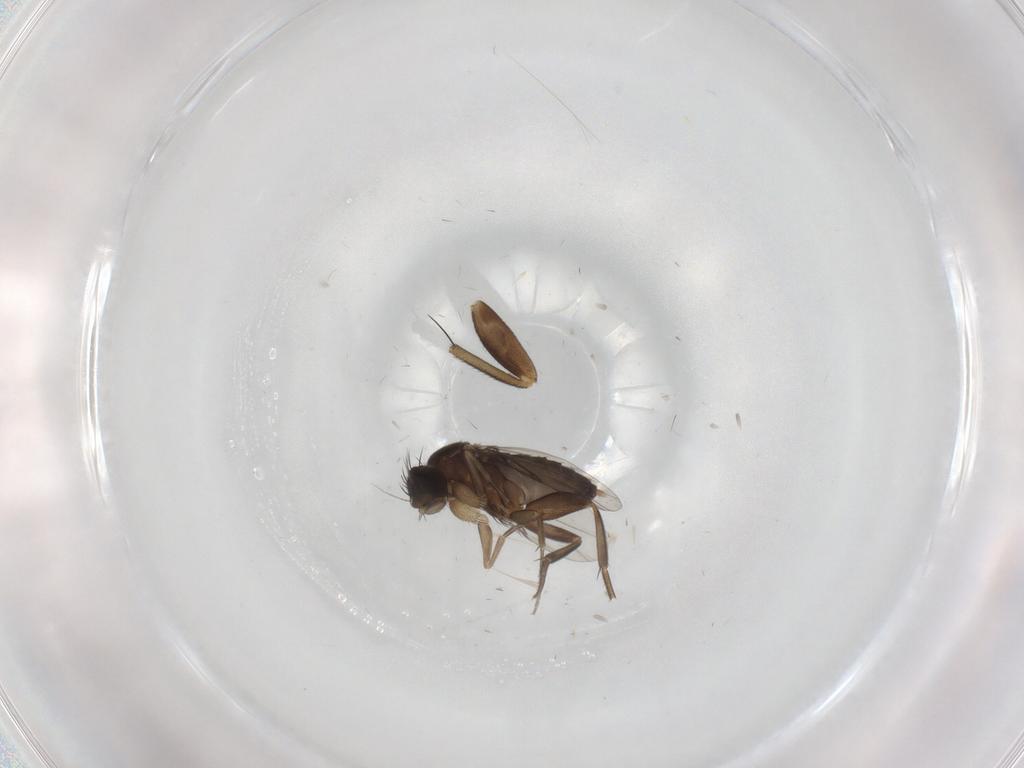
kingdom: Animalia
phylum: Arthropoda
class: Insecta
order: Diptera
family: Phoridae
